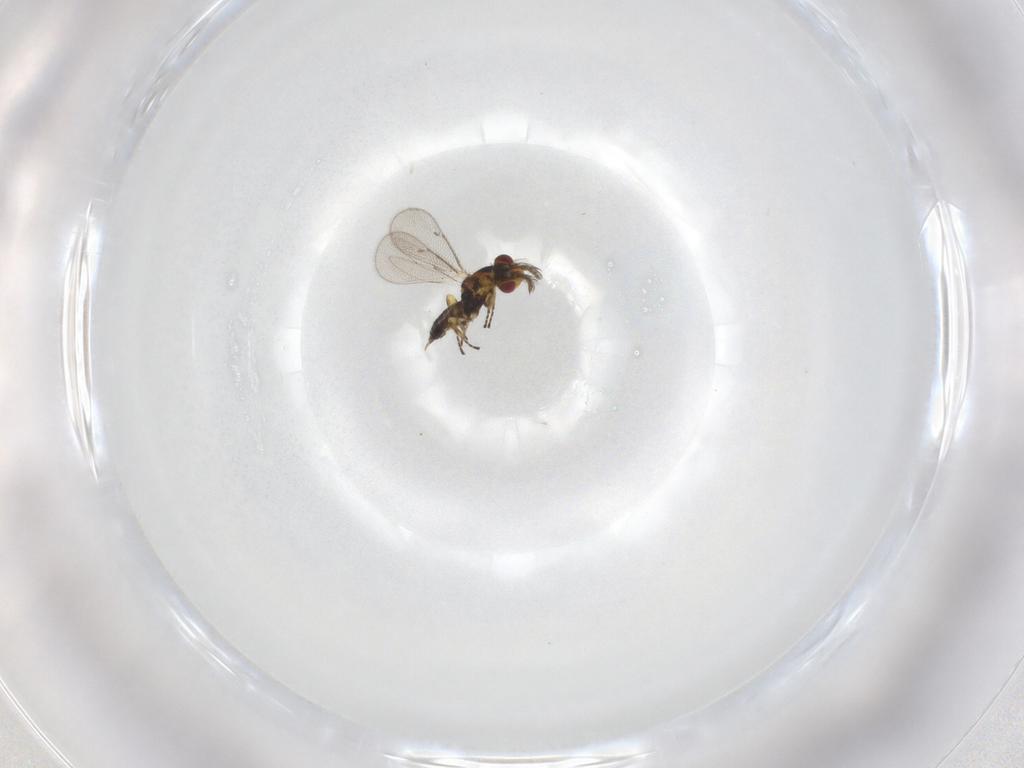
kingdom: Animalia
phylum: Arthropoda
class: Insecta
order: Hymenoptera
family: Eulophidae
